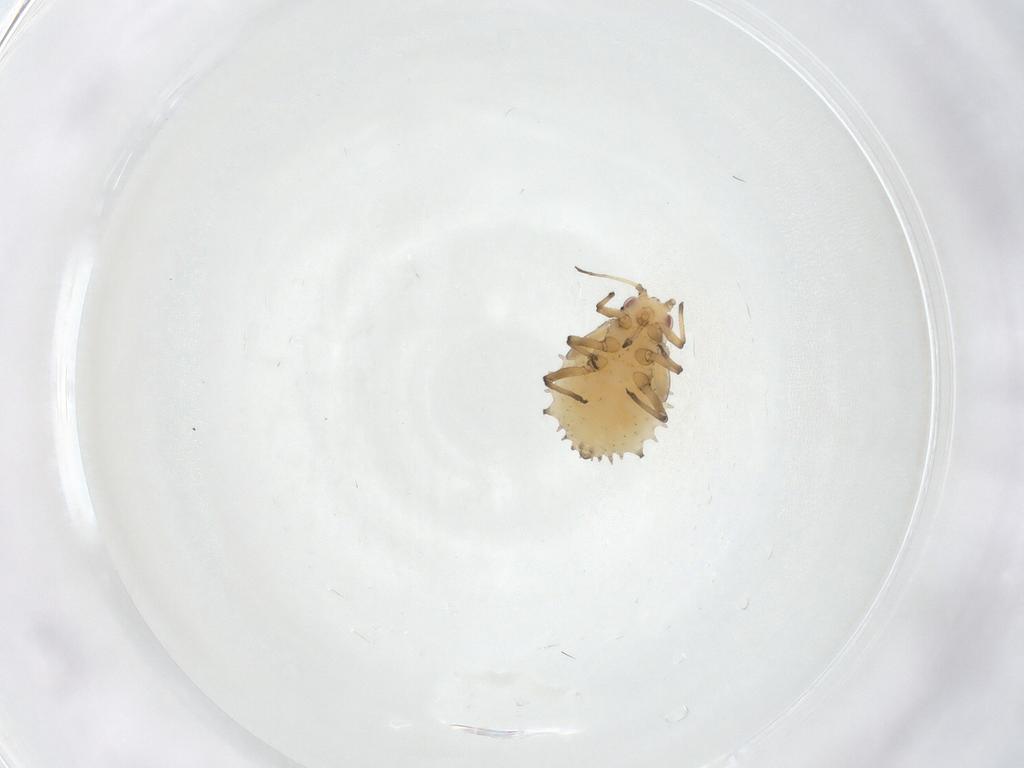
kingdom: Animalia
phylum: Arthropoda
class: Insecta
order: Hemiptera
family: Aphididae
